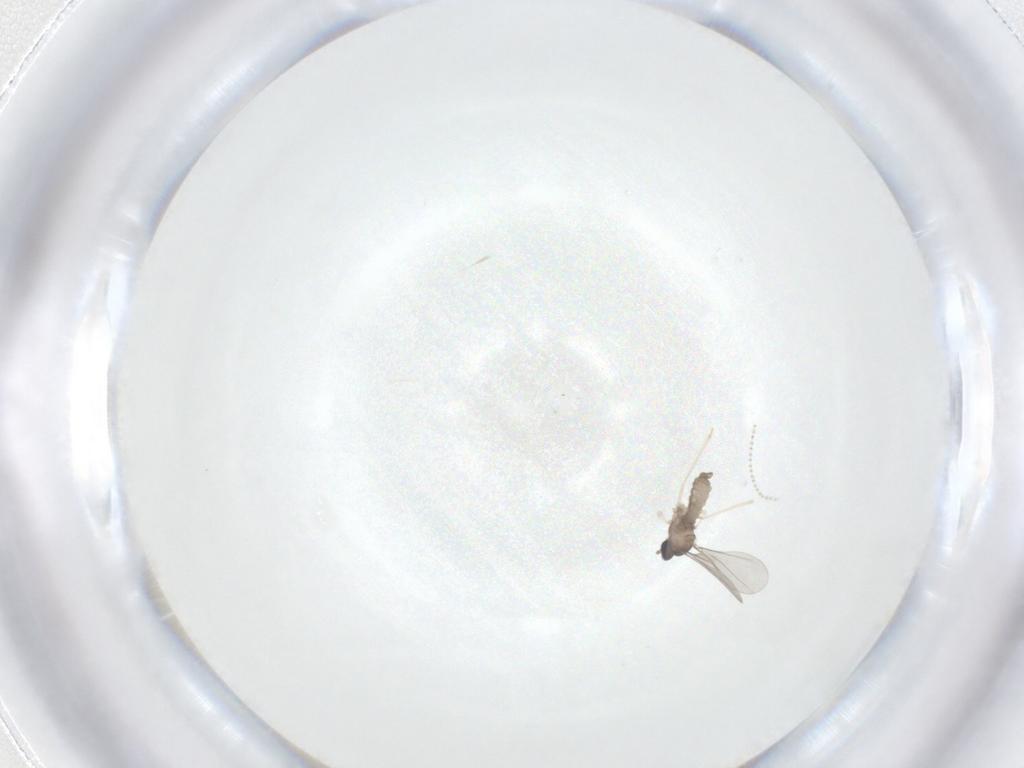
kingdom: Animalia
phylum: Arthropoda
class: Insecta
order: Diptera
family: Cecidomyiidae
